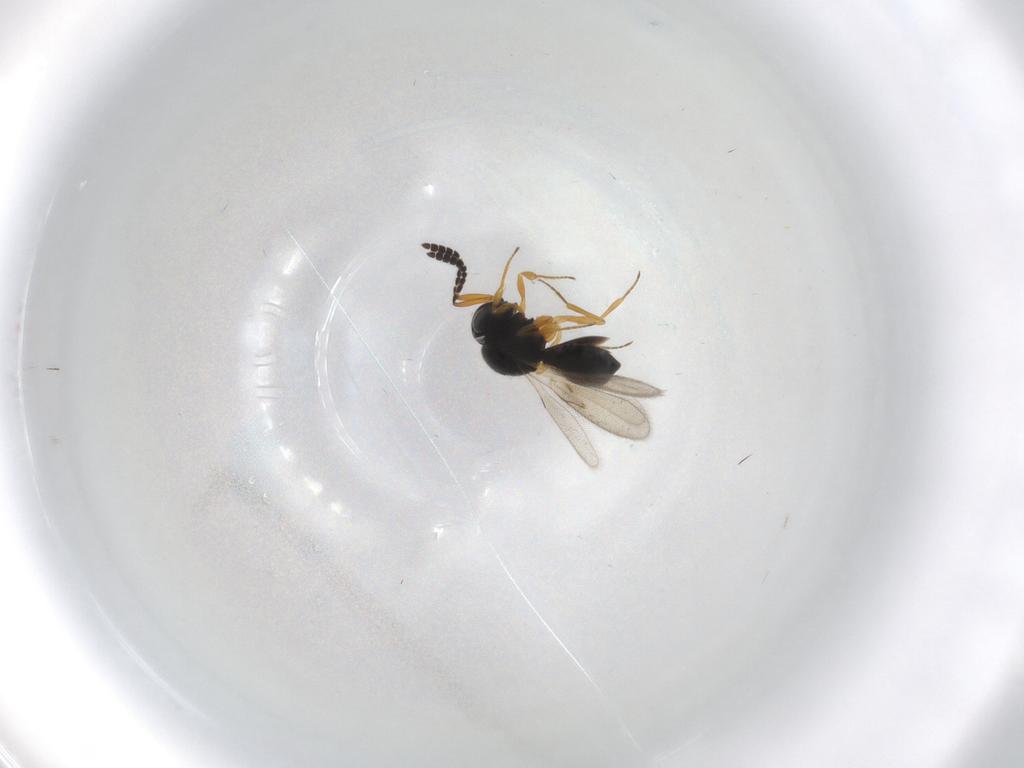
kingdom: Animalia
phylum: Arthropoda
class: Insecta
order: Hymenoptera
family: Scelionidae
